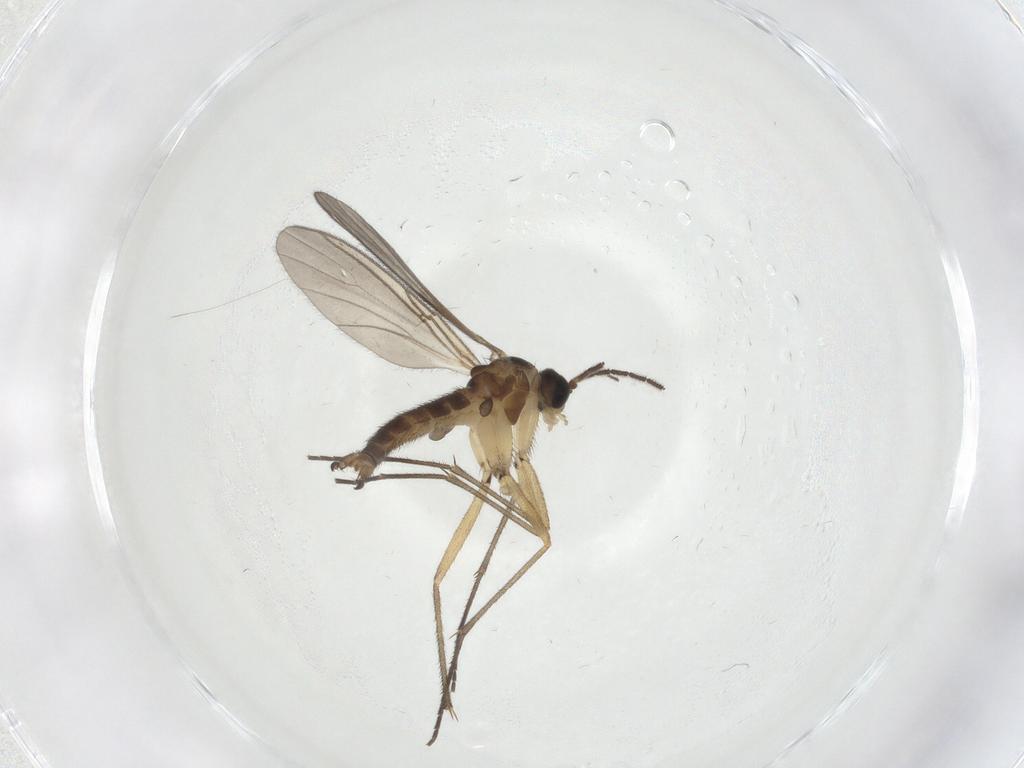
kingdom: Animalia
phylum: Arthropoda
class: Insecta
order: Diptera
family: Sciaridae
